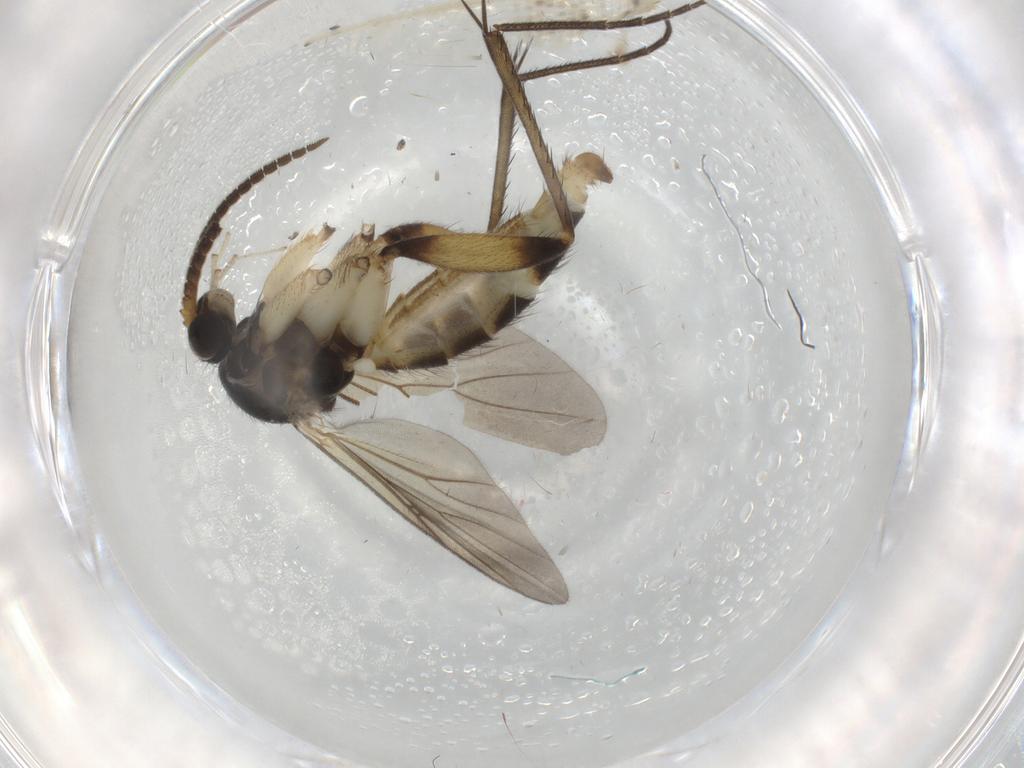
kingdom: Animalia
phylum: Arthropoda
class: Insecta
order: Diptera
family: Mycetophilidae
